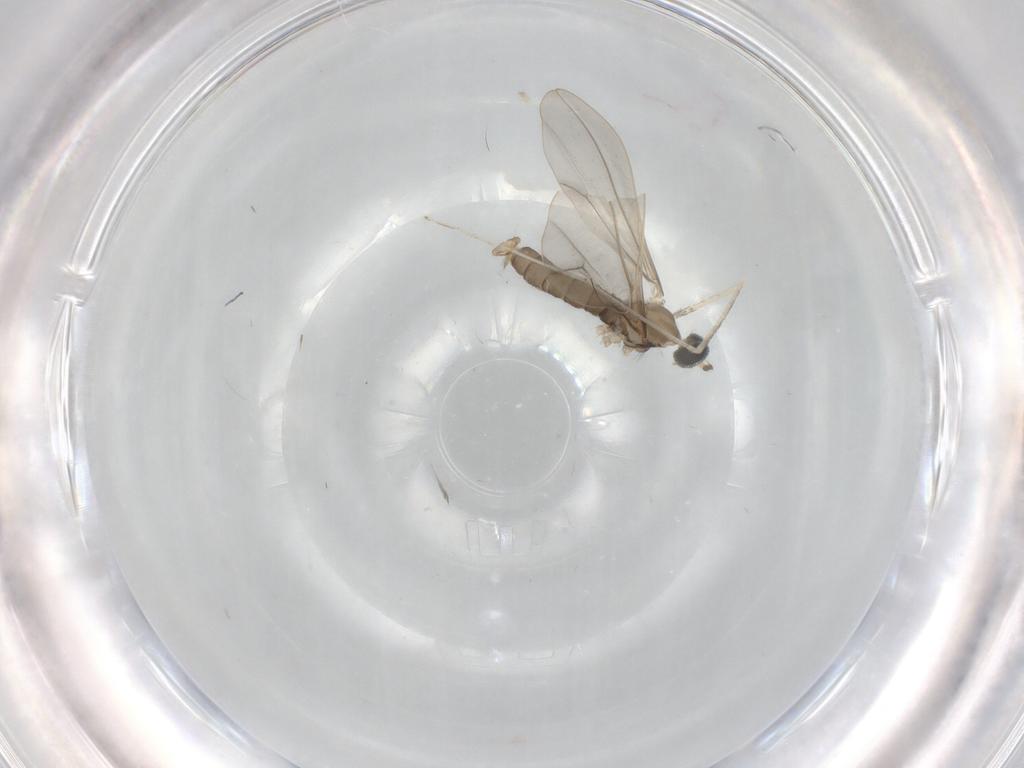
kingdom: Animalia
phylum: Arthropoda
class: Insecta
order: Diptera
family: Cecidomyiidae
